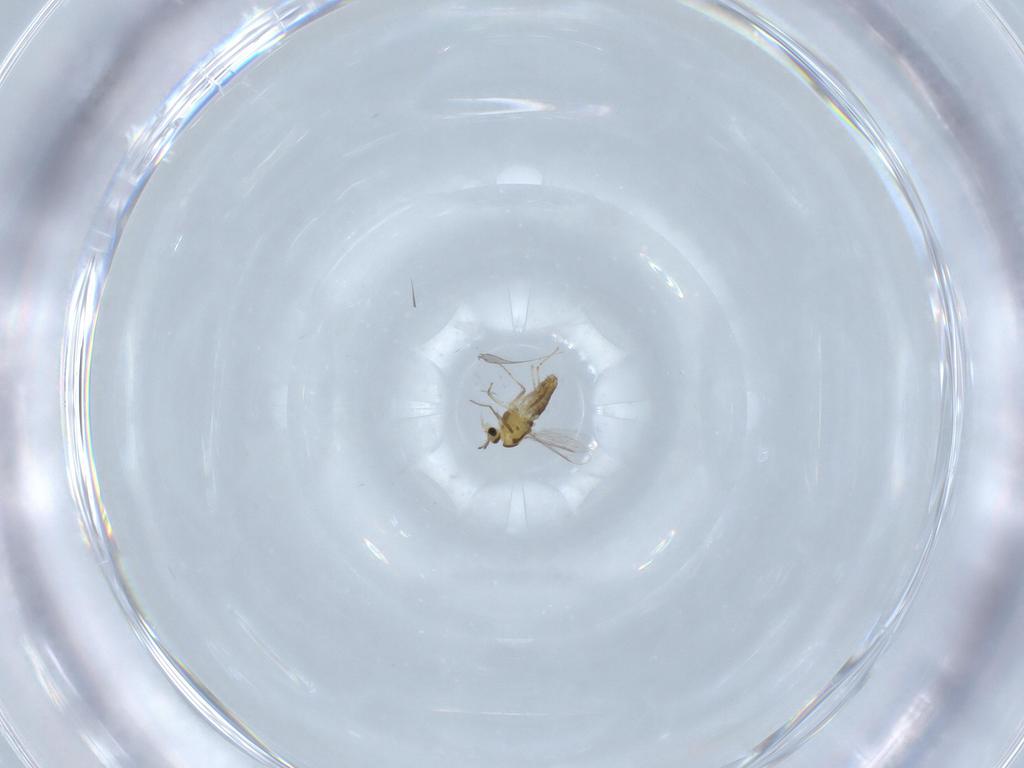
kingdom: Animalia
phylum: Arthropoda
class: Insecta
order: Diptera
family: Chironomidae
